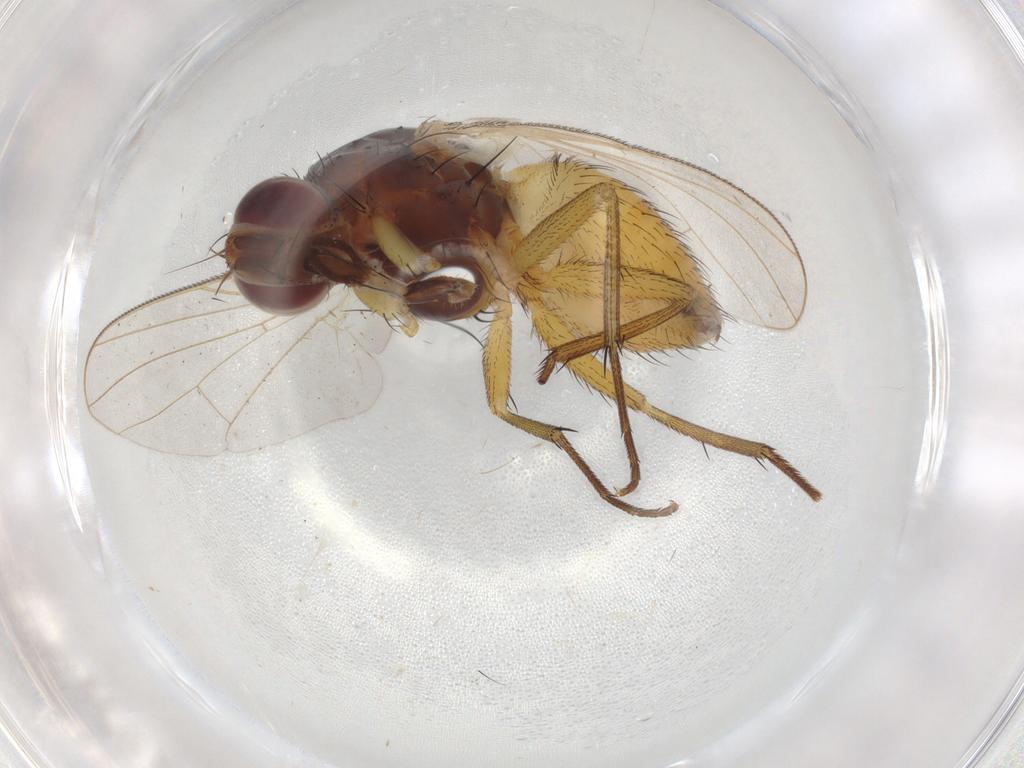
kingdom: Animalia
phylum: Arthropoda
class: Insecta
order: Diptera
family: Muscidae
